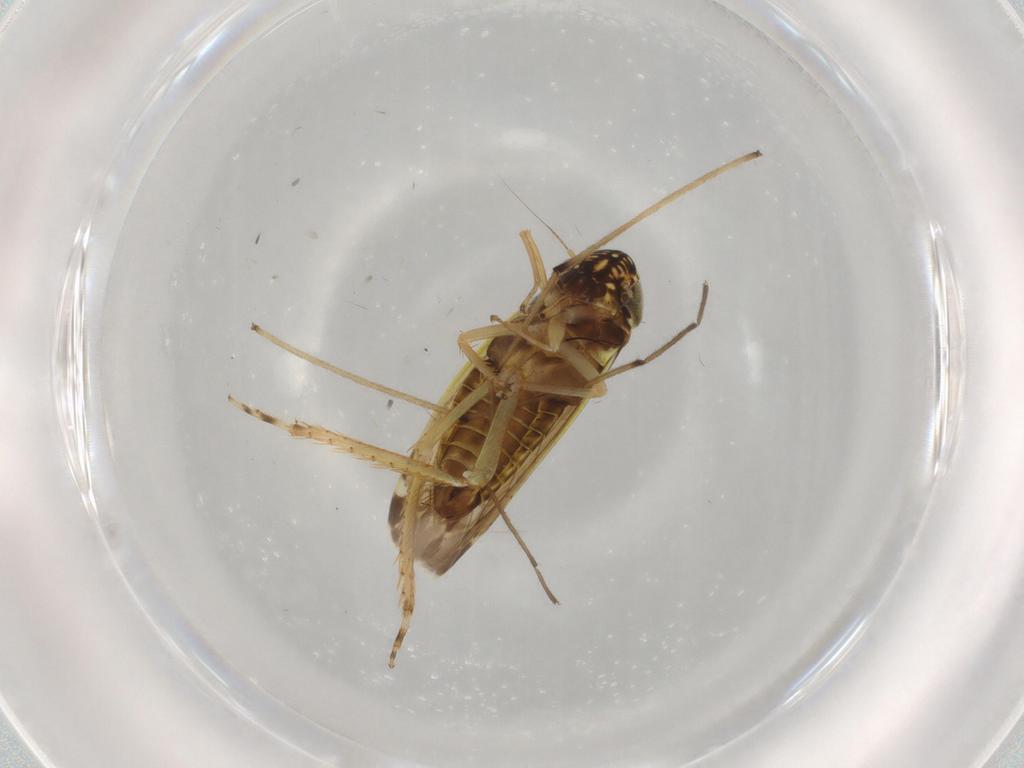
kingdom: Animalia
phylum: Arthropoda
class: Insecta
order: Hemiptera
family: Cicadellidae
